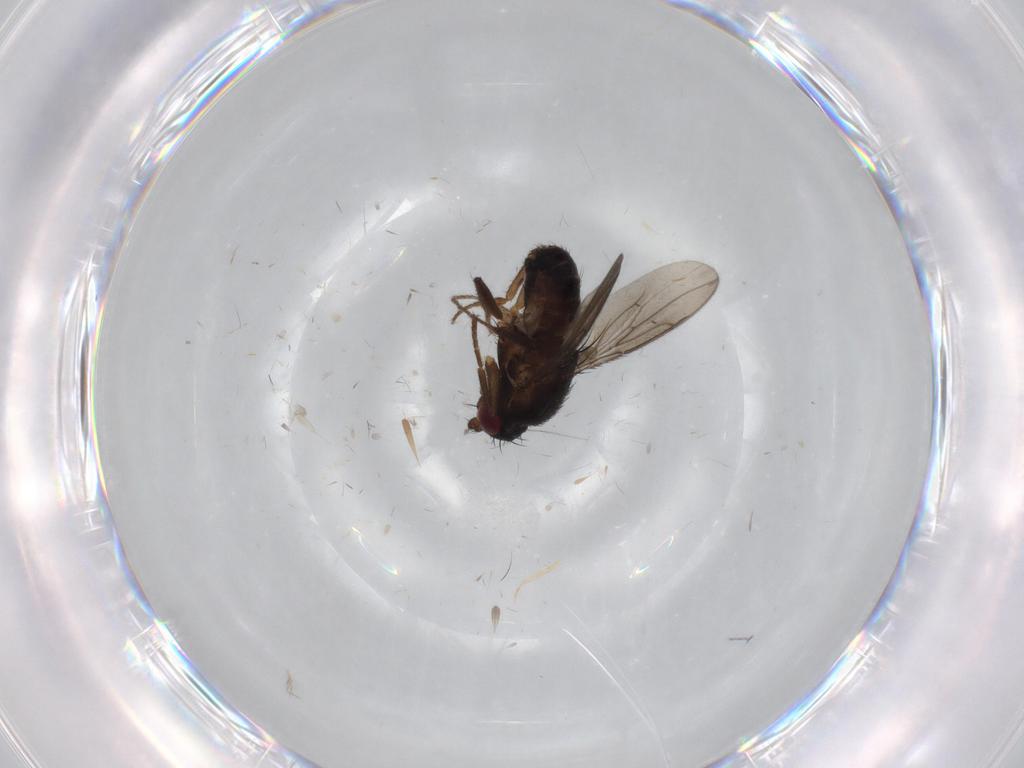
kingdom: Animalia
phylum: Arthropoda
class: Insecta
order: Diptera
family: Sphaeroceridae
